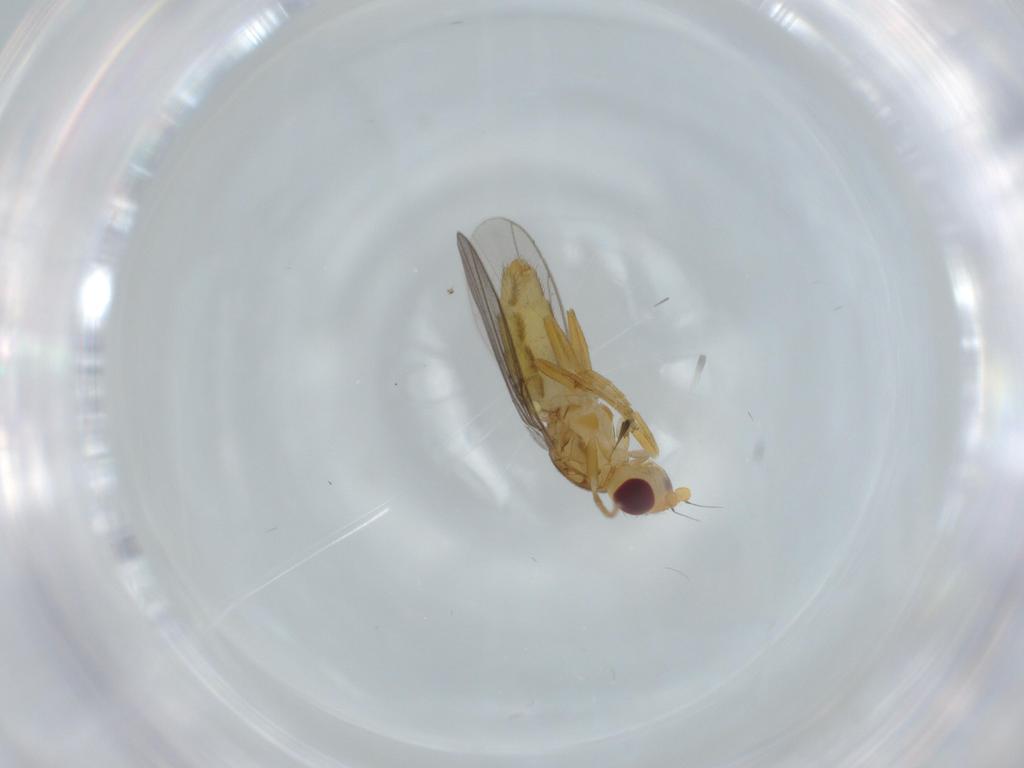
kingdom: Animalia
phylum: Arthropoda
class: Insecta
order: Diptera
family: Chloropidae
